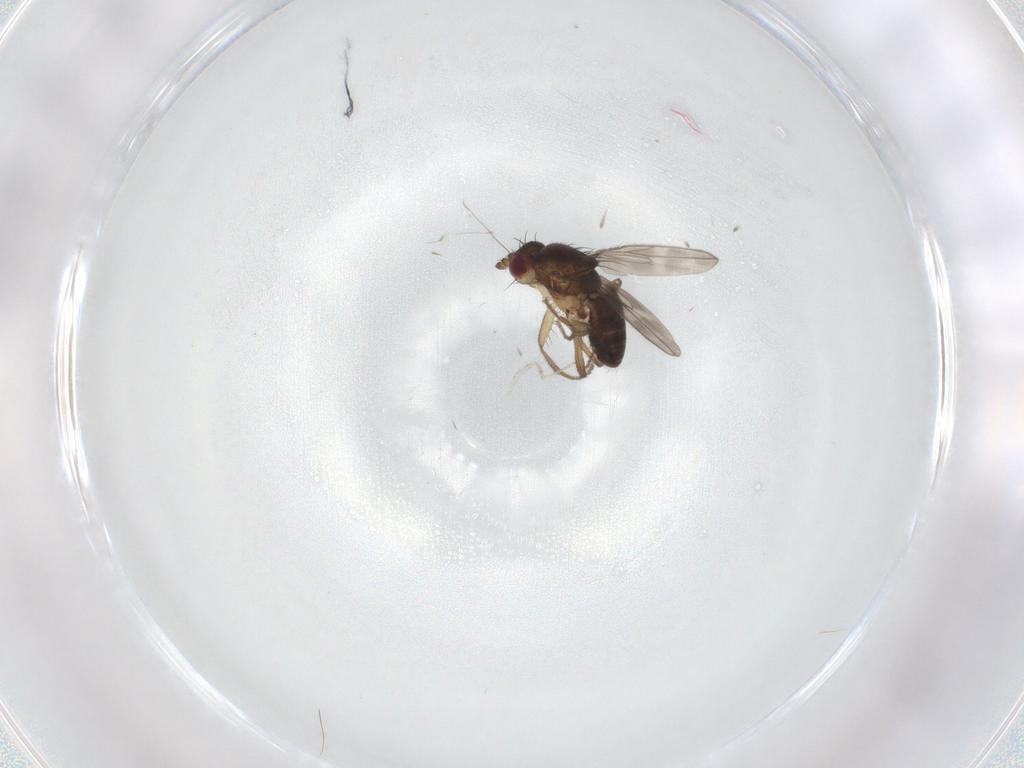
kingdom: Animalia
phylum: Arthropoda
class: Insecta
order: Diptera
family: Sphaeroceridae
